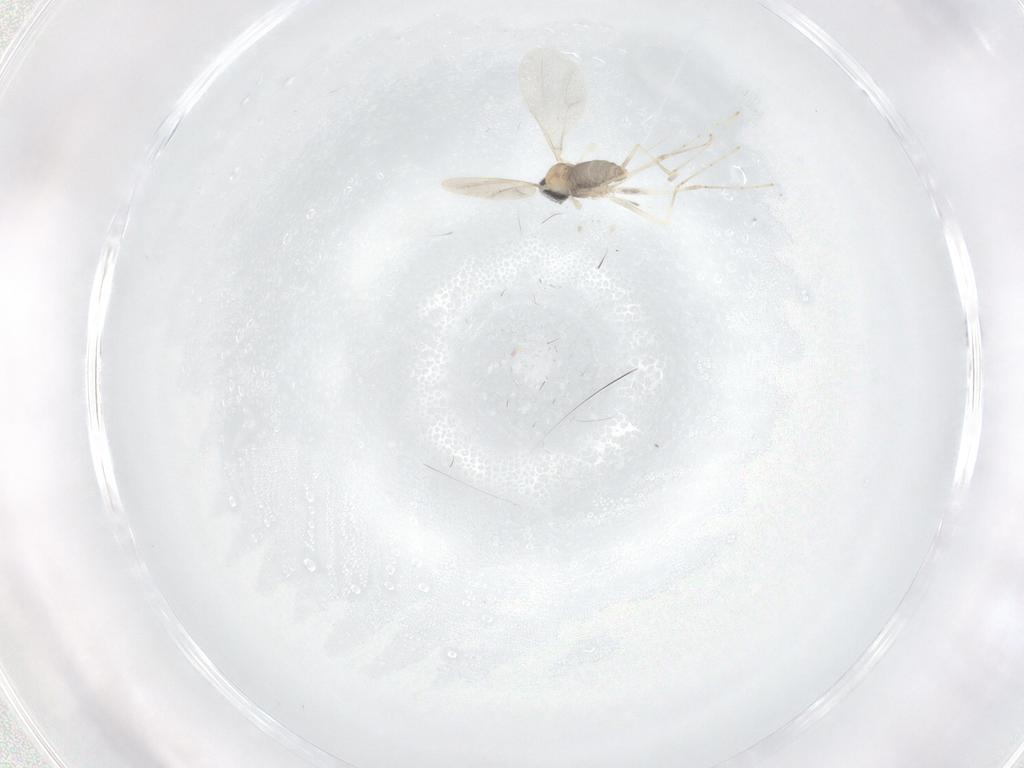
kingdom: Animalia
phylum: Arthropoda
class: Insecta
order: Diptera
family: Cecidomyiidae
